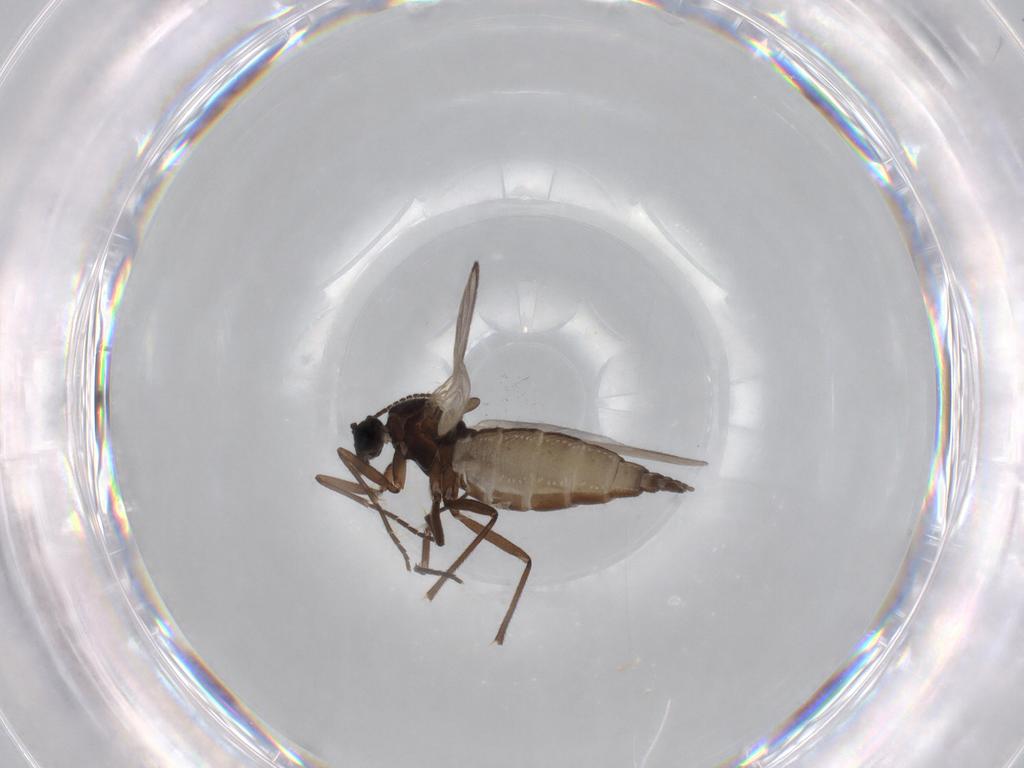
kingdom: Animalia
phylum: Arthropoda
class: Insecta
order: Diptera
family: Sciaridae
